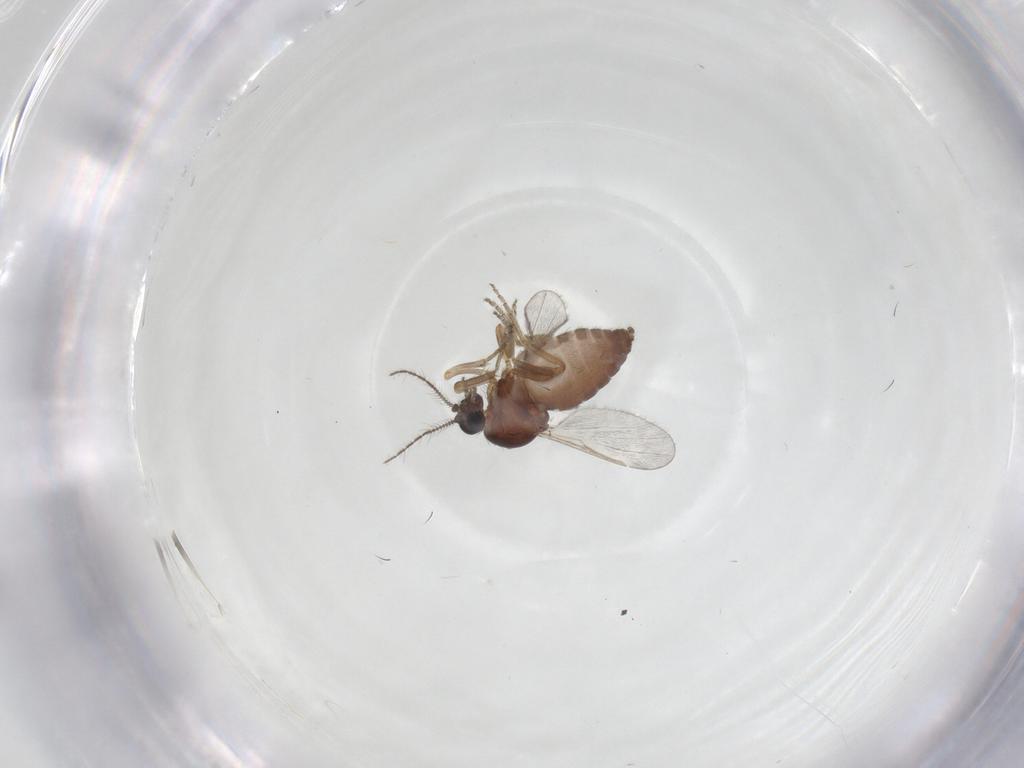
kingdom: Animalia
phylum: Arthropoda
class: Insecta
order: Diptera
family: Ceratopogonidae
